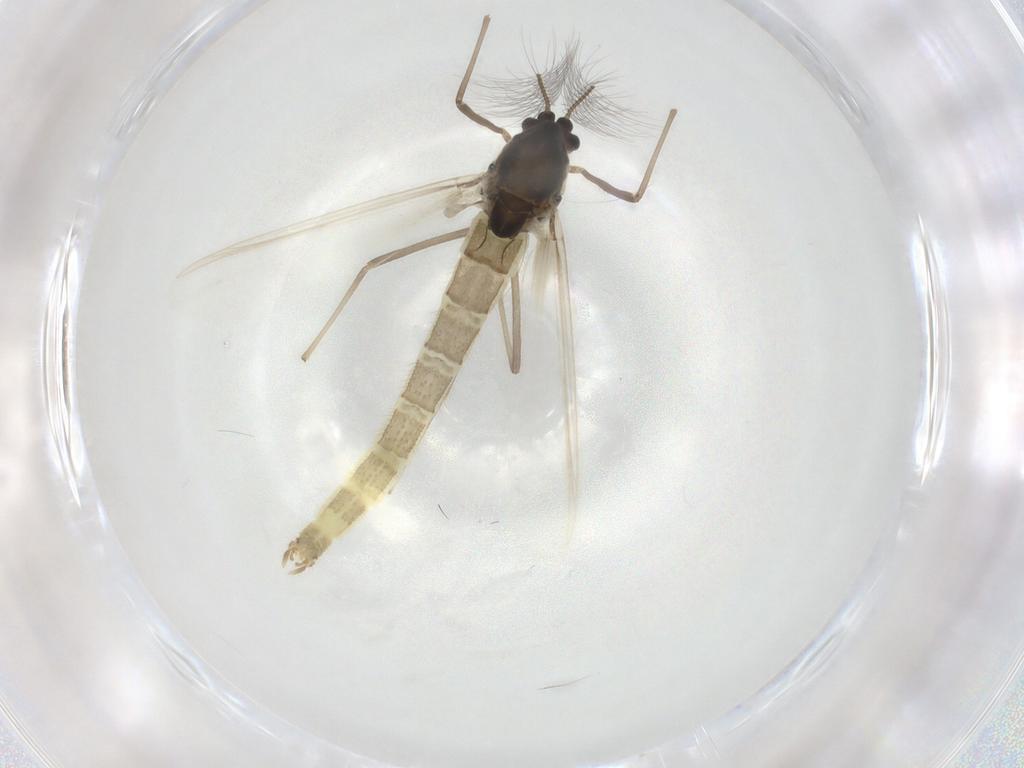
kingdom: Animalia
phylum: Arthropoda
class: Insecta
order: Diptera
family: Chironomidae
